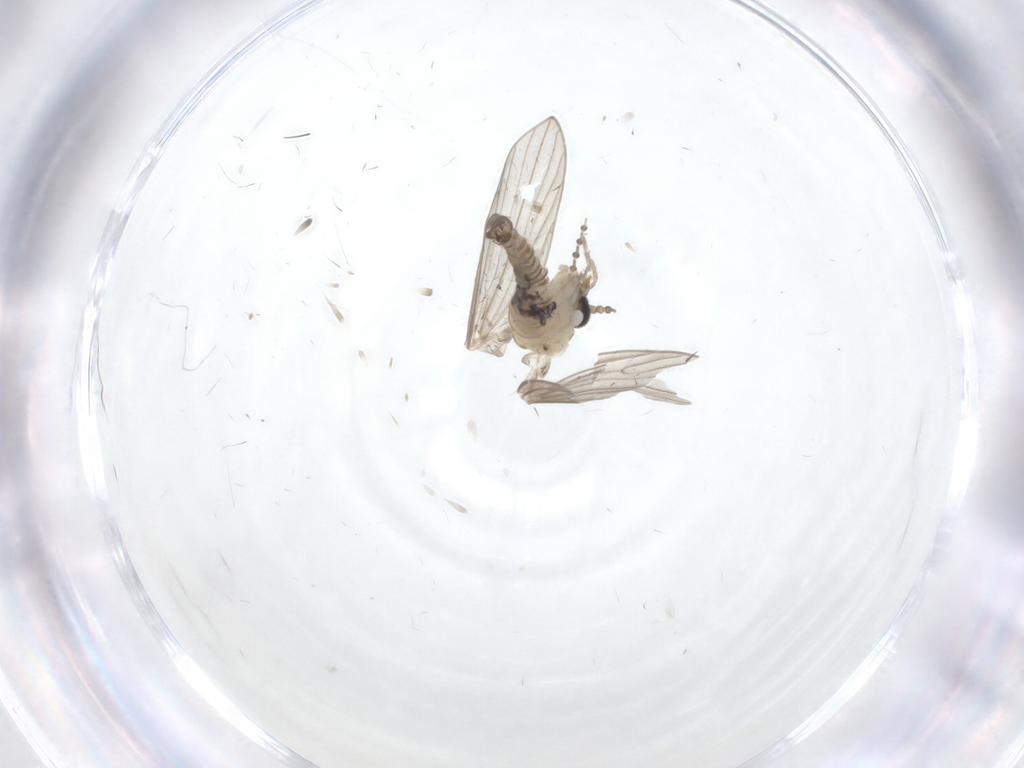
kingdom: Animalia
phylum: Arthropoda
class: Insecta
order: Diptera
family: Psychodidae
